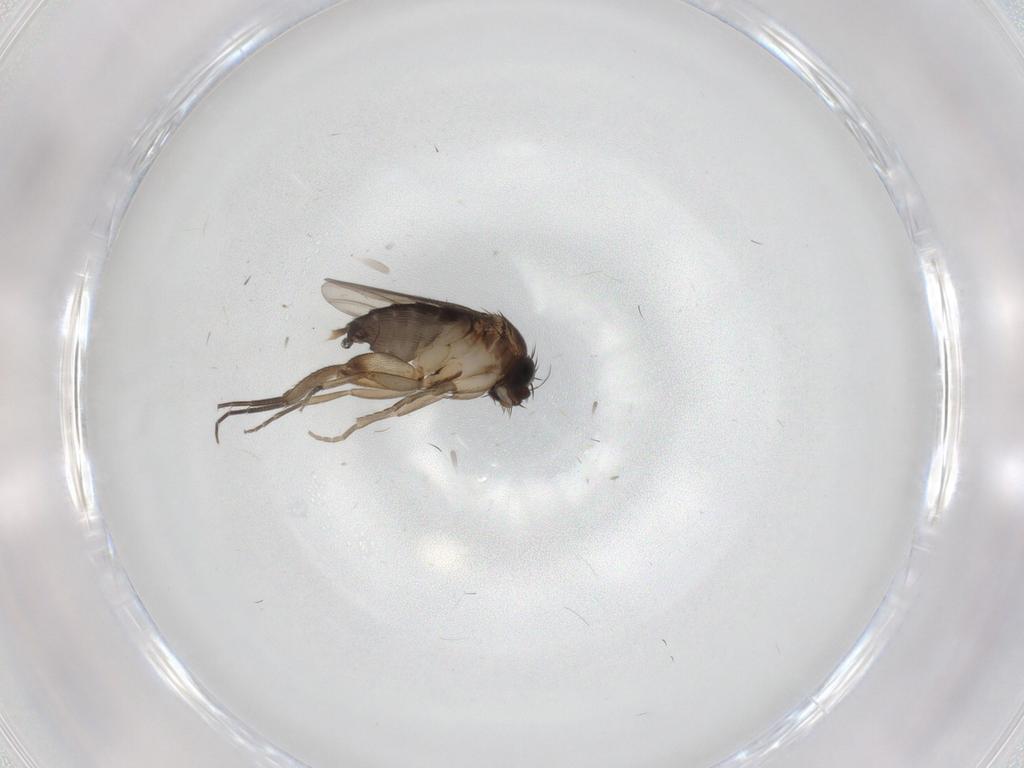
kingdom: Animalia
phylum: Arthropoda
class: Insecta
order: Diptera
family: Phoridae
